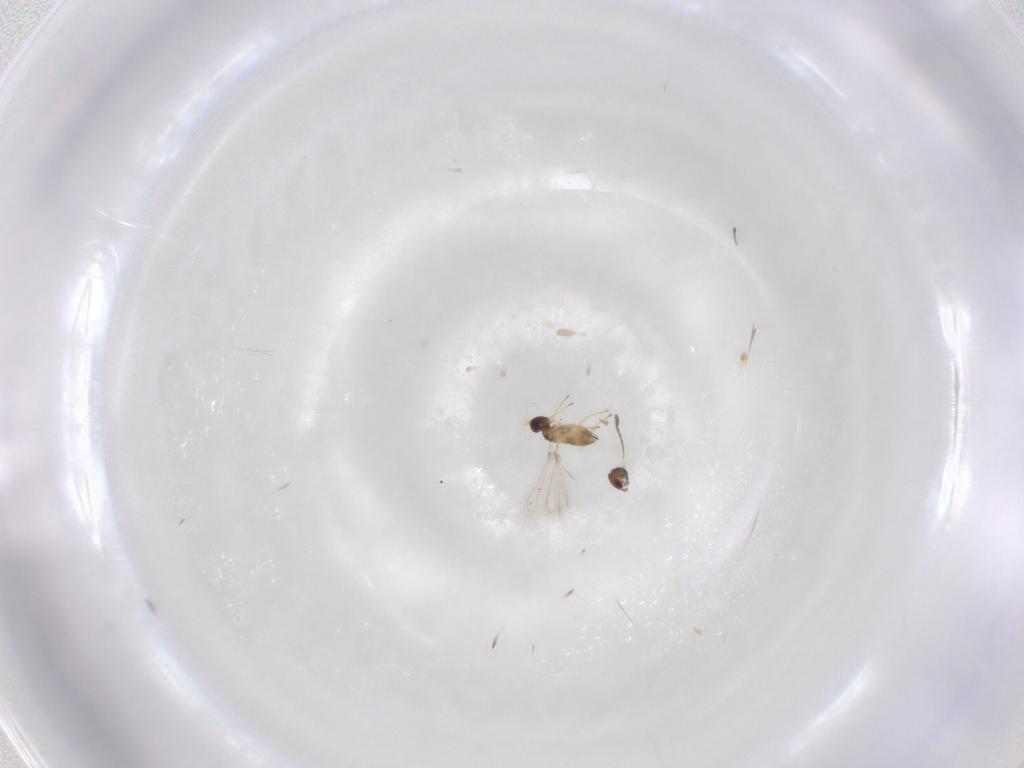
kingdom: Animalia
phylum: Arthropoda
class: Insecta
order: Hymenoptera
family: Mymaridae
